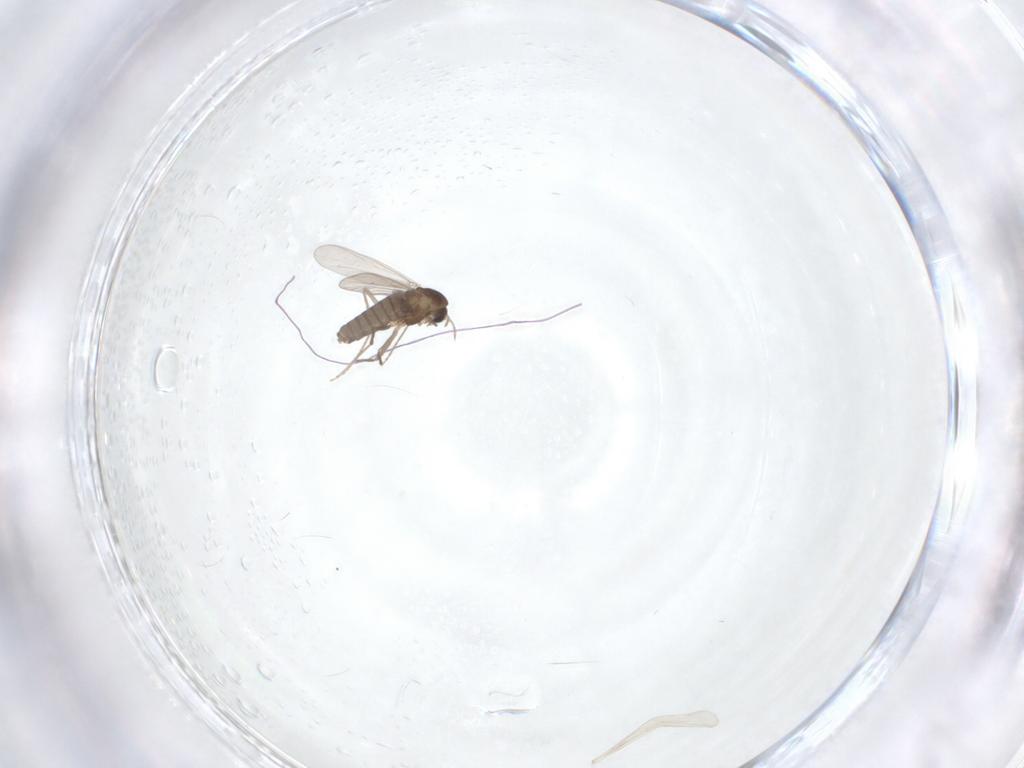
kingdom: Animalia
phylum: Arthropoda
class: Insecta
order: Diptera
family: Chironomidae
